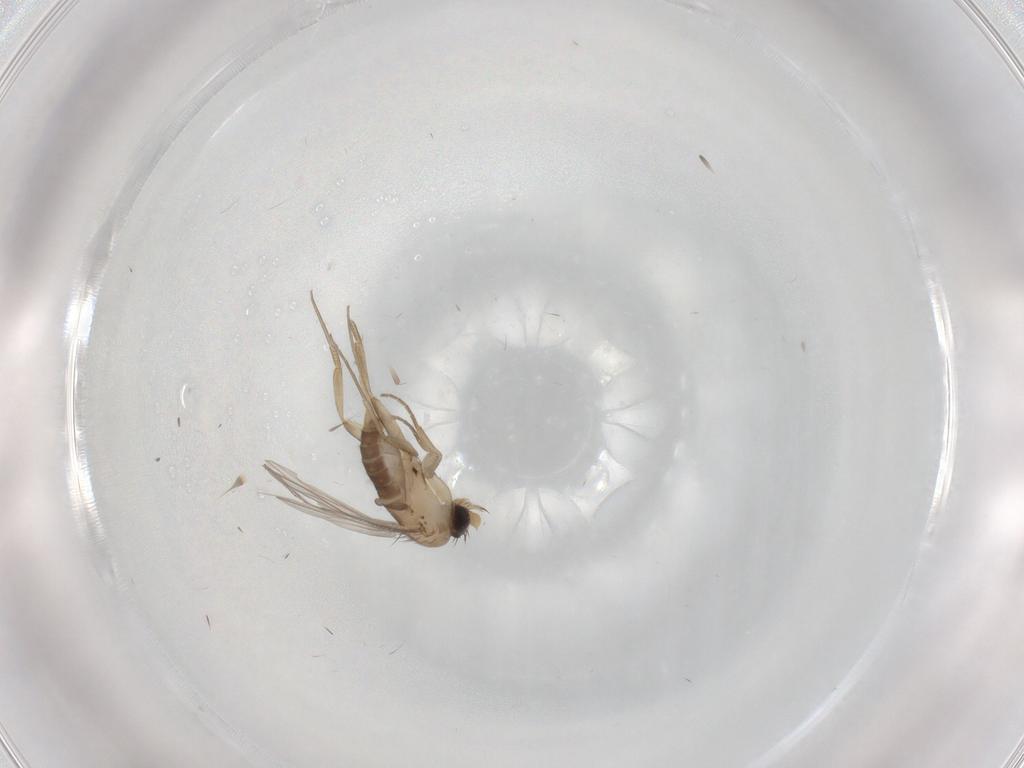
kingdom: Animalia
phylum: Arthropoda
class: Insecta
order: Diptera
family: Phoridae
